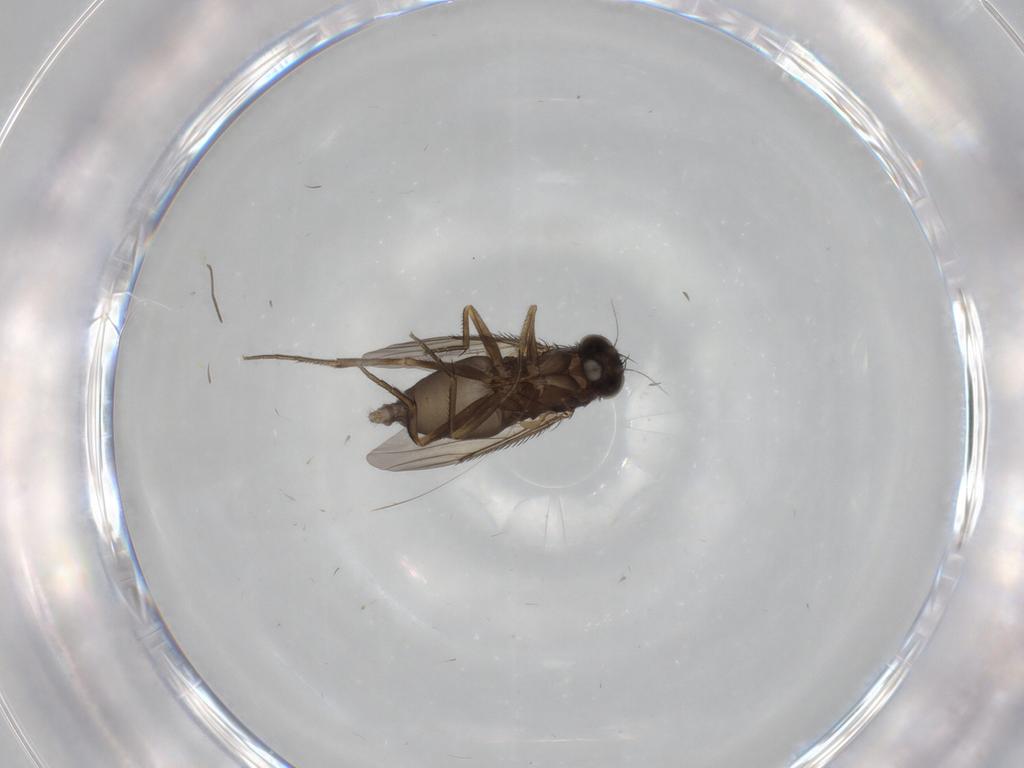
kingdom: Animalia
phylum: Arthropoda
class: Insecta
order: Diptera
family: Phoridae
